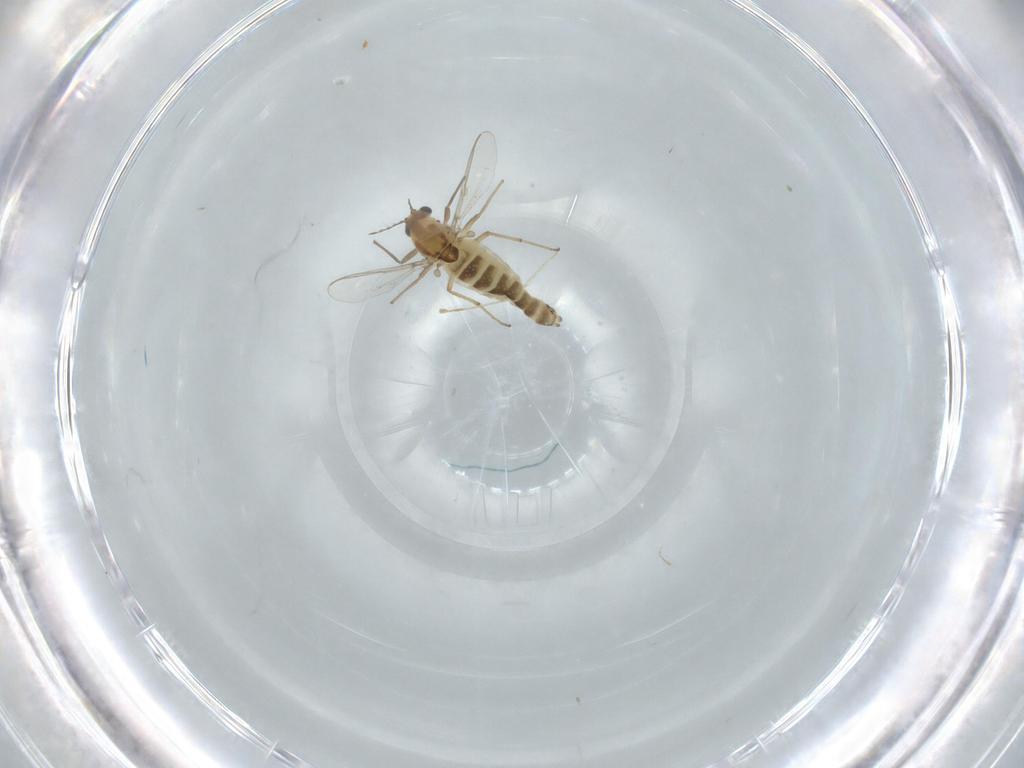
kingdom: Animalia
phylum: Arthropoda
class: Insecta
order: Diptera
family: Chironomidae
